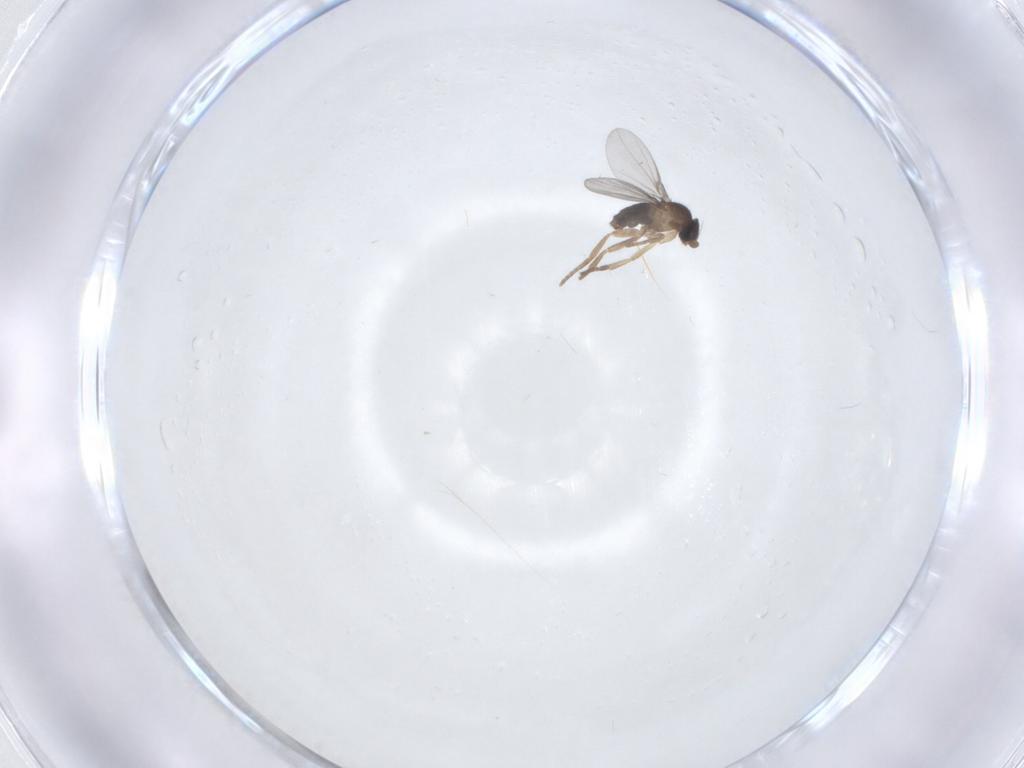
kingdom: Animalia
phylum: Arthropoda
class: Insecta
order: Diptera
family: Phoridae
